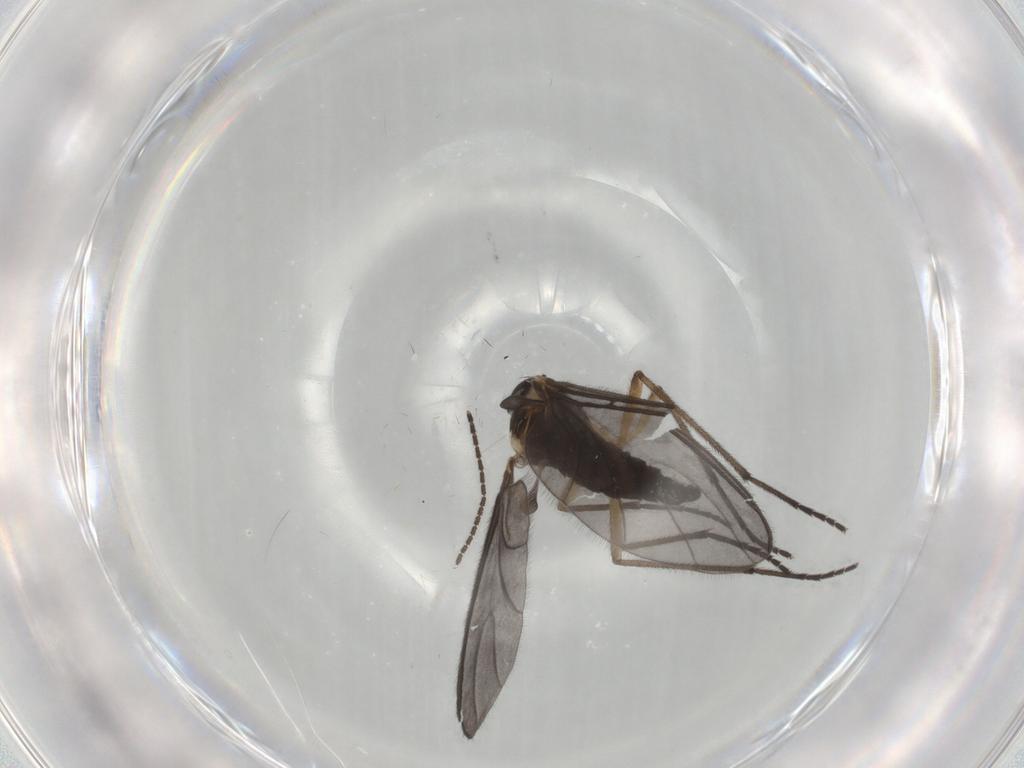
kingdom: Animalia
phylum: Arthropoda
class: Insecta
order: Diptera
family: Sciaridae
